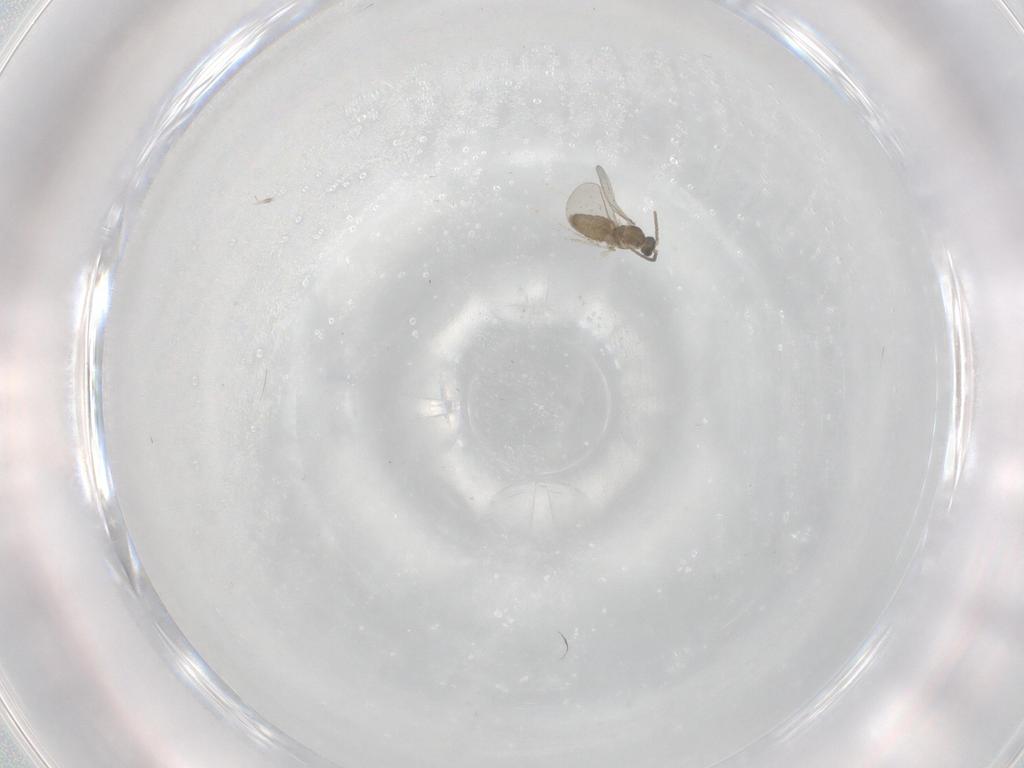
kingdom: Animalia
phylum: Arthropoda
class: Insecta
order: Diptera
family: Cecidomyiidae
